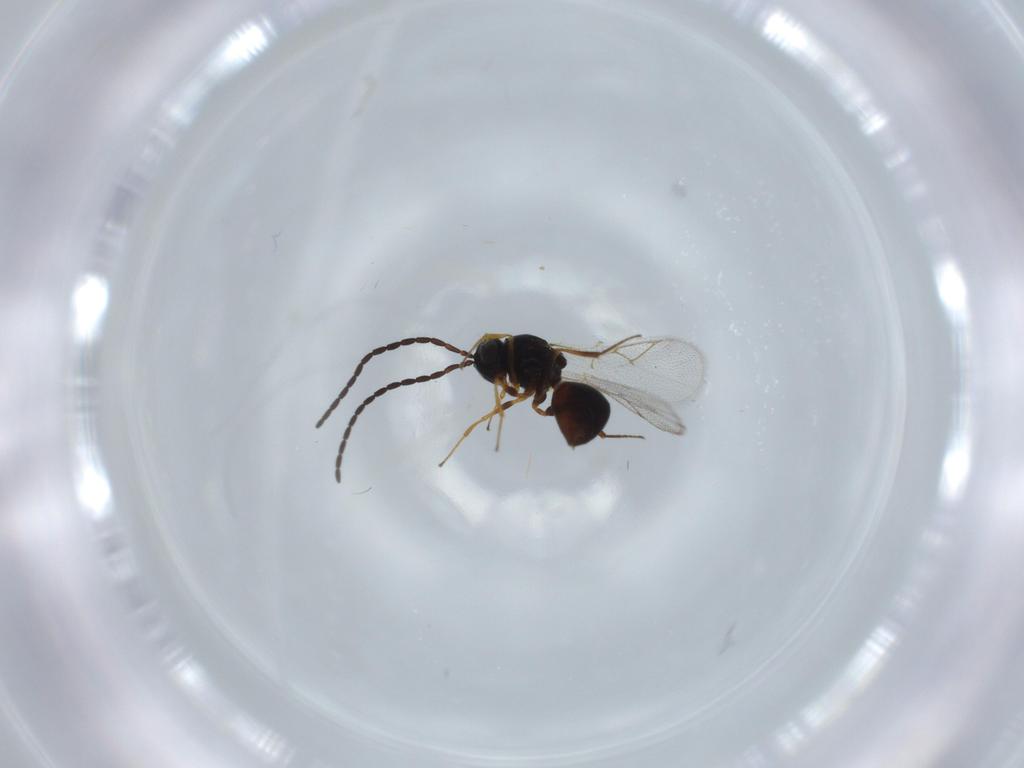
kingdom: Animalia
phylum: Arthropoda
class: Insecta
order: Hymenoptera
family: Figitidae
